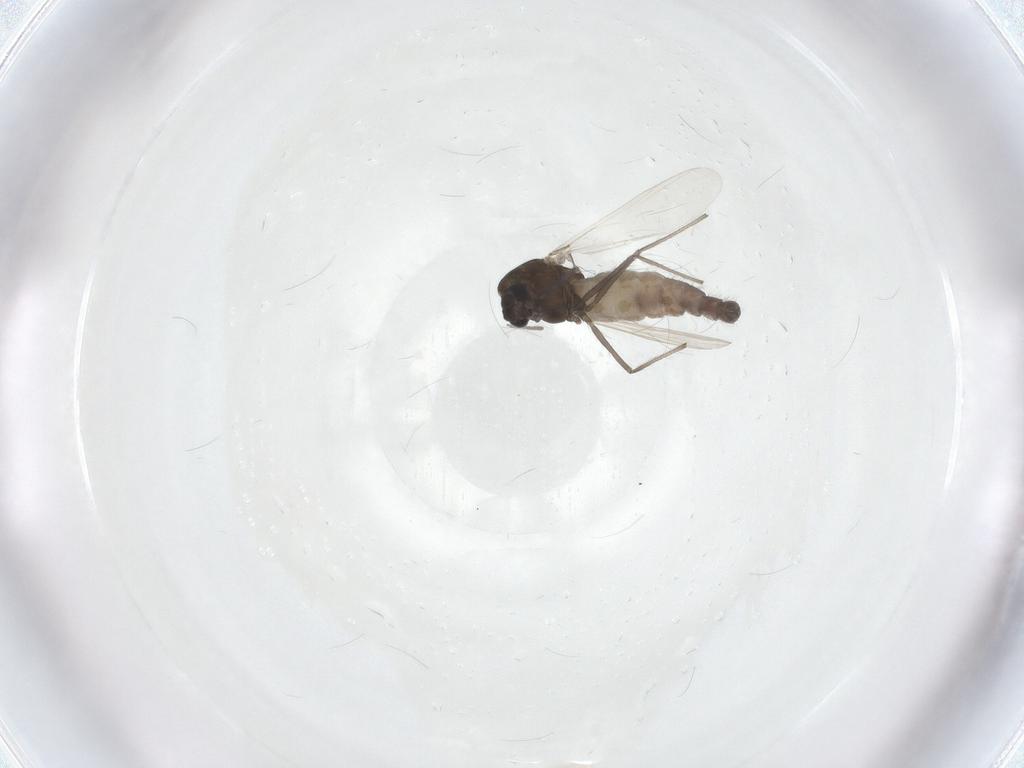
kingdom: Animalia
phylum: Arthropoda
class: Insecta
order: Diptera
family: Chironomidae
